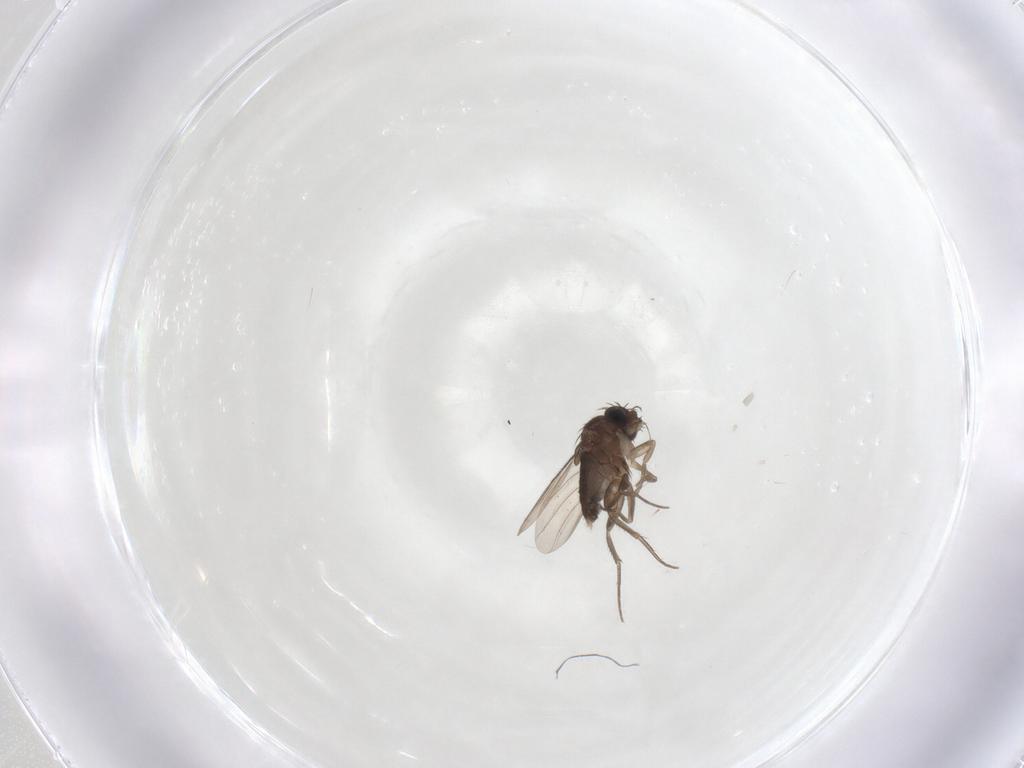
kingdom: Animalia
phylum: Arthropoda
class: Insecta
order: Diptera
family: Phoridae
